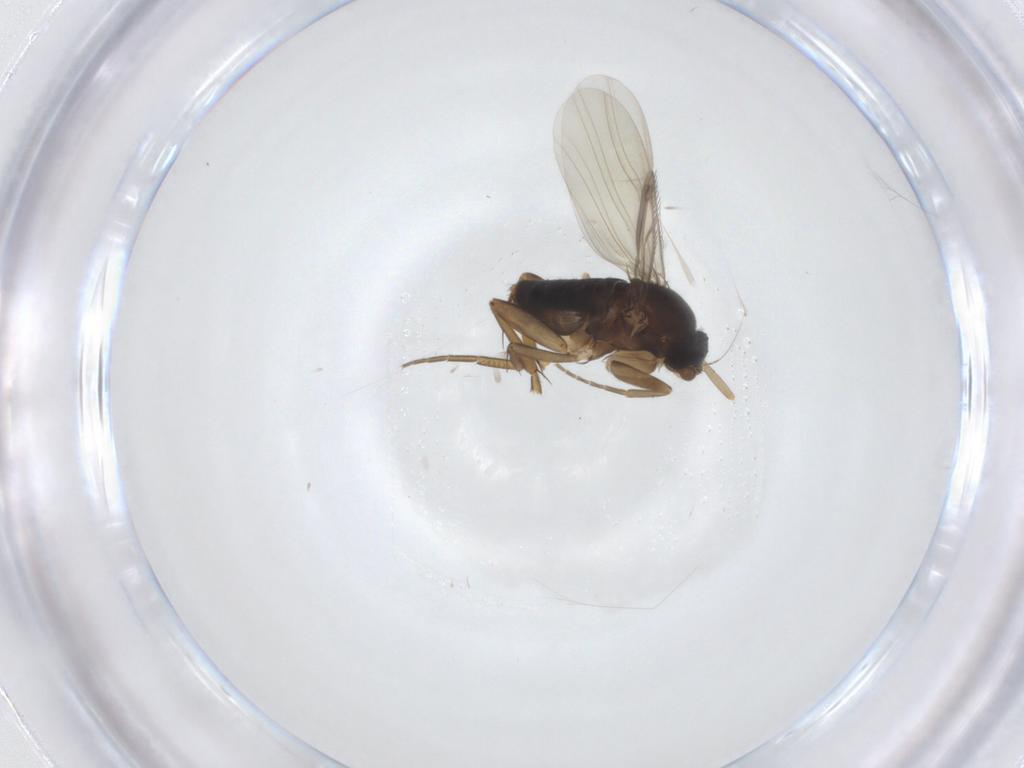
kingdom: Animalia
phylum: Arthropoda
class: Insecta
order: Diptera
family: Phoridae
